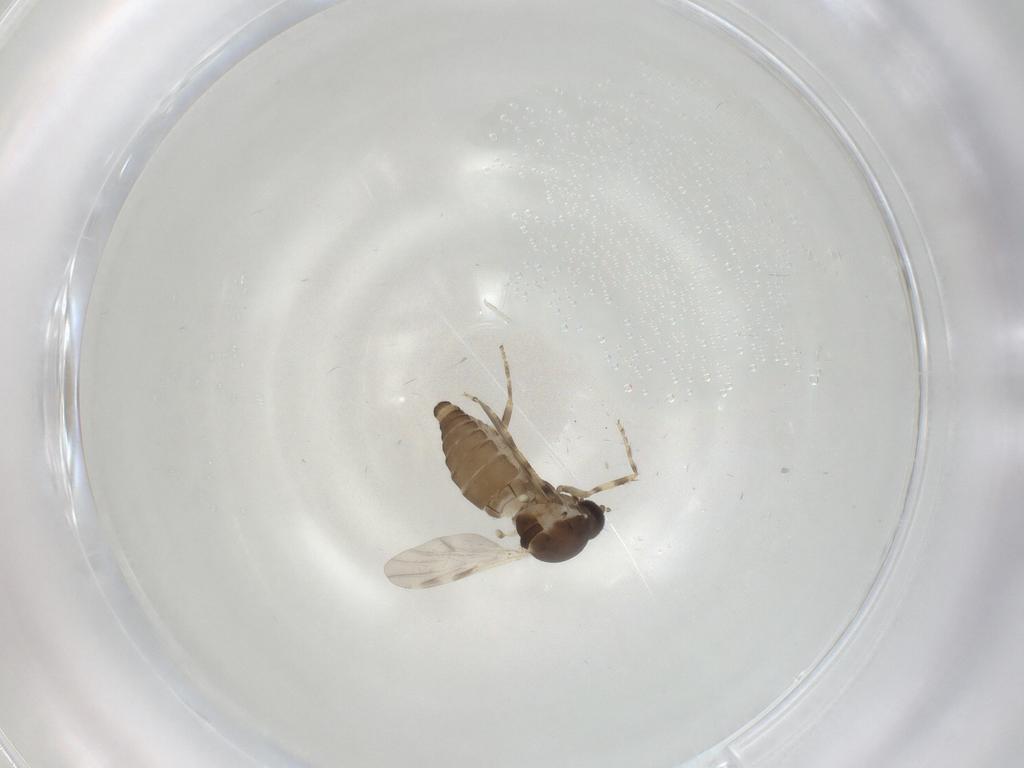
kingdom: Animalia
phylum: Arthropoda
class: Insecta
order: Diptera
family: Ceratopogonidae
